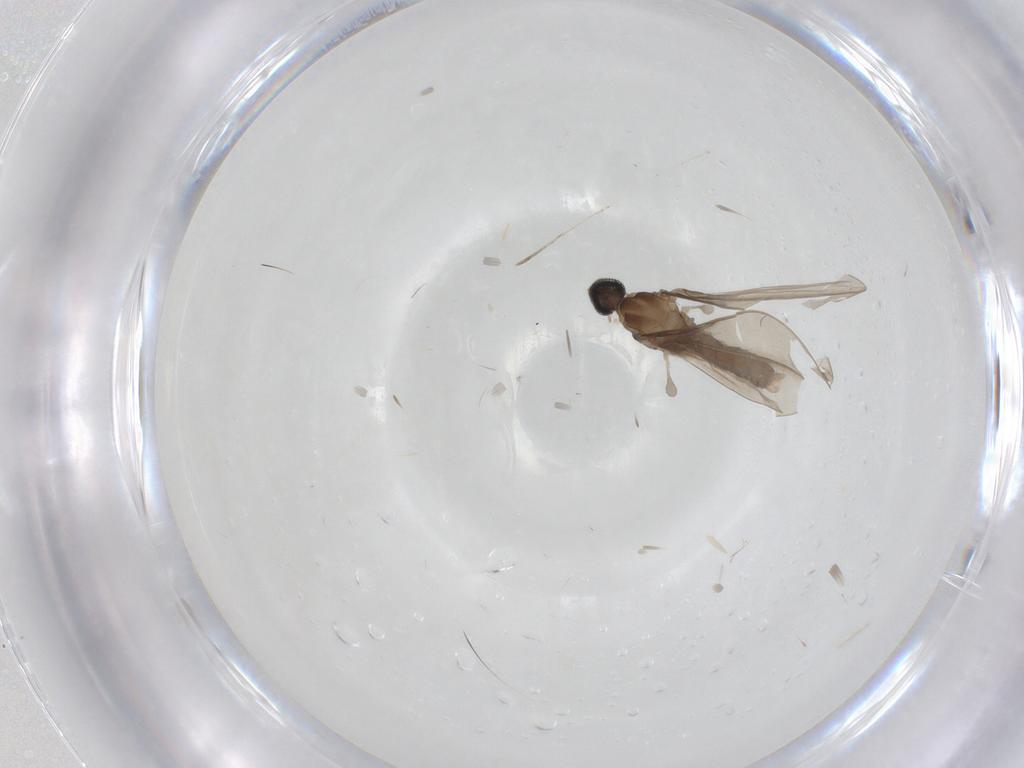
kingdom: Animalia
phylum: Arthropoda
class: Insecta
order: Diptera
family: Cecidomyiidae
